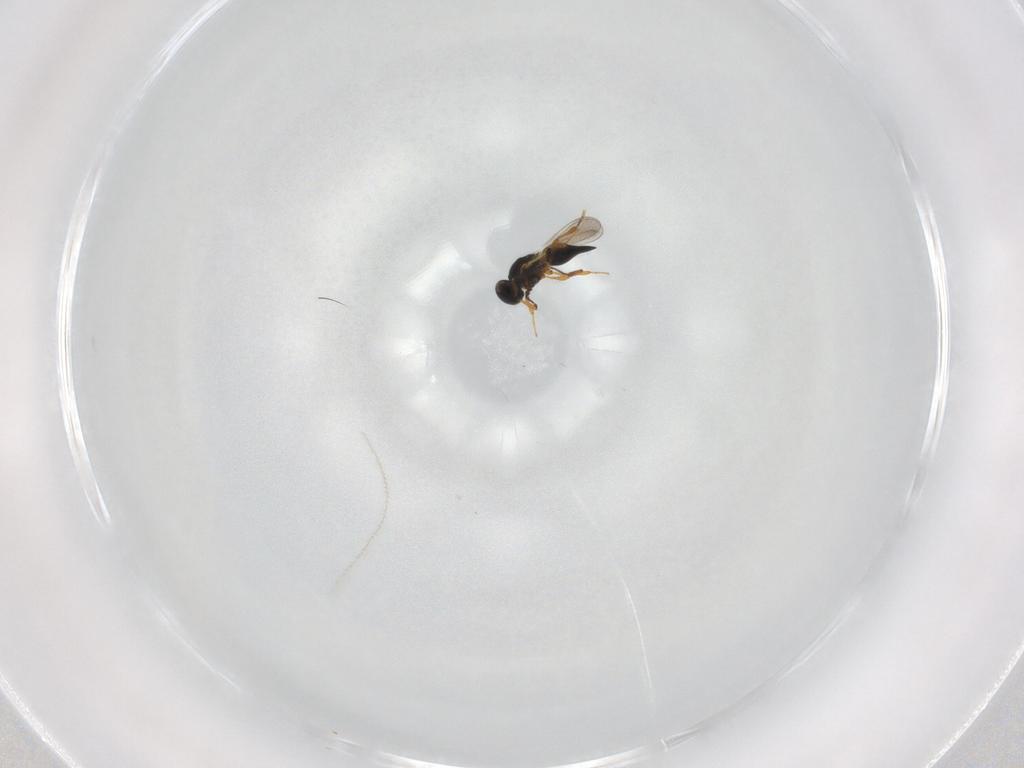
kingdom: Animalia
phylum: Arthropoda
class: Insecta
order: Hymenoptera
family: Platygastridae
